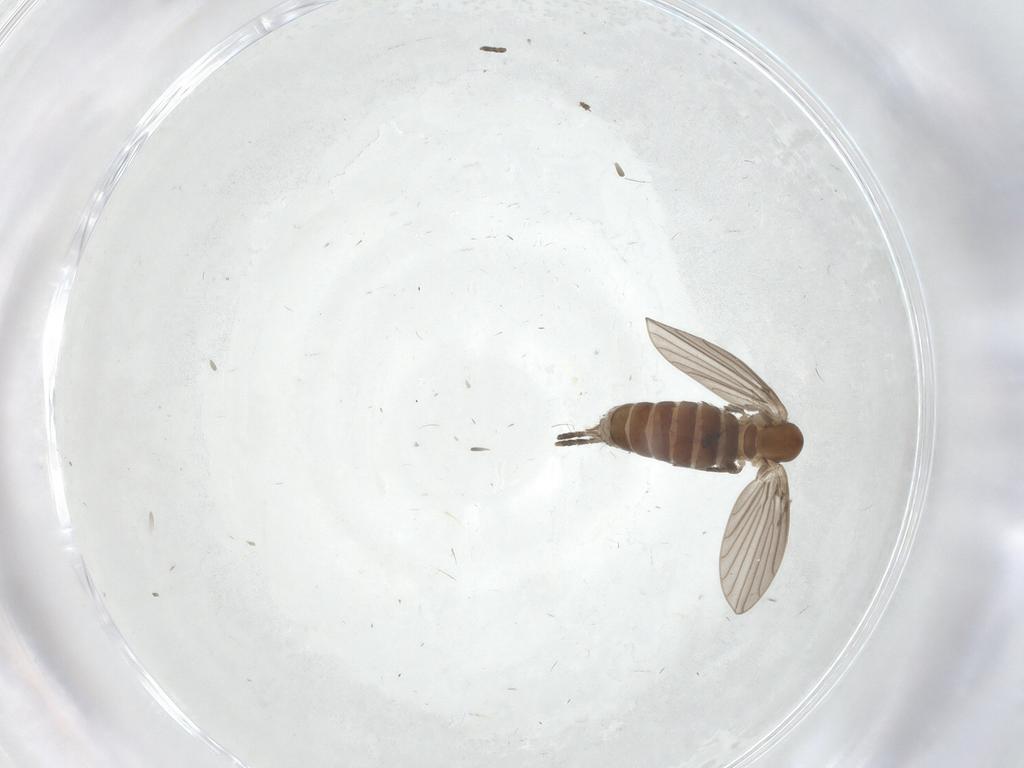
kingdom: Animalia
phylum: Arthropoda
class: Insecta
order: Diptera
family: Psychodidae
